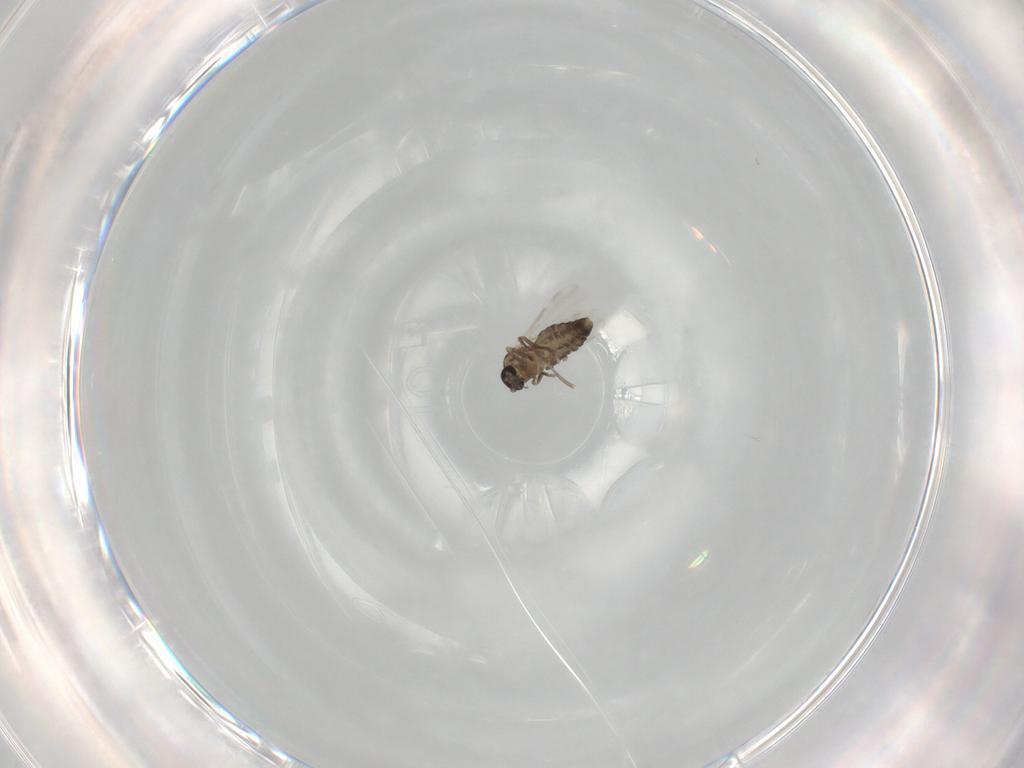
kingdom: Animalia
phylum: Arthropoda
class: Insecta
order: Diptera
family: Ceratopogonidae
